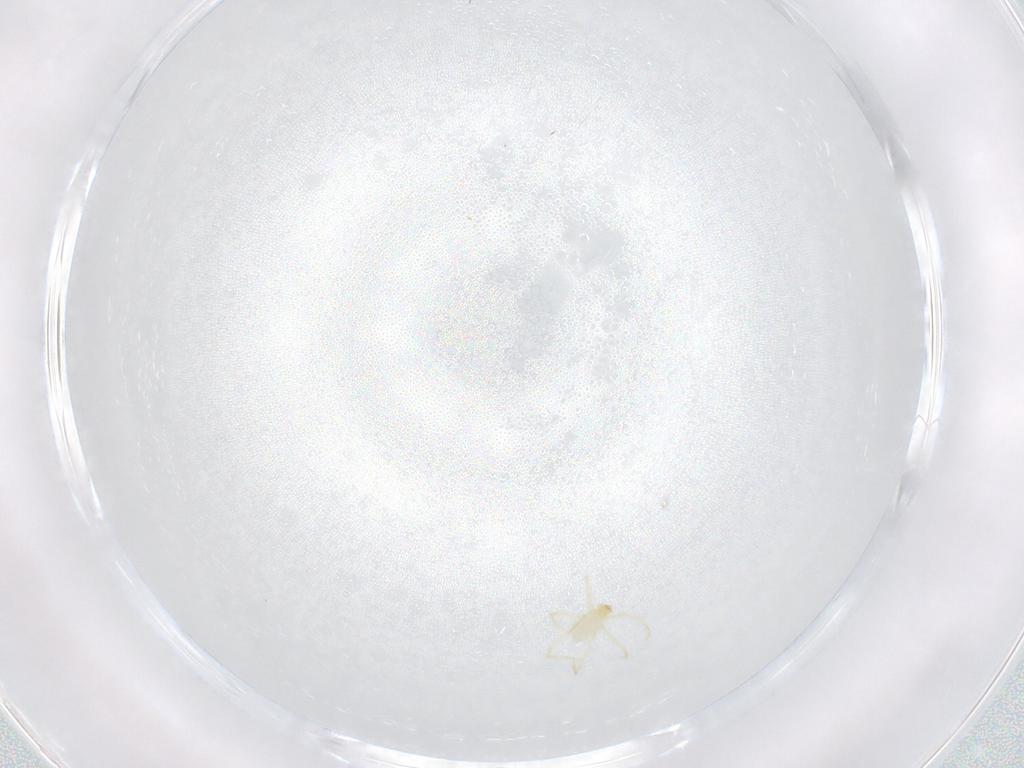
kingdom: Animalia
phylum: Arthropoda
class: Arachnida
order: Trombidiformes
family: Erythraeidae
